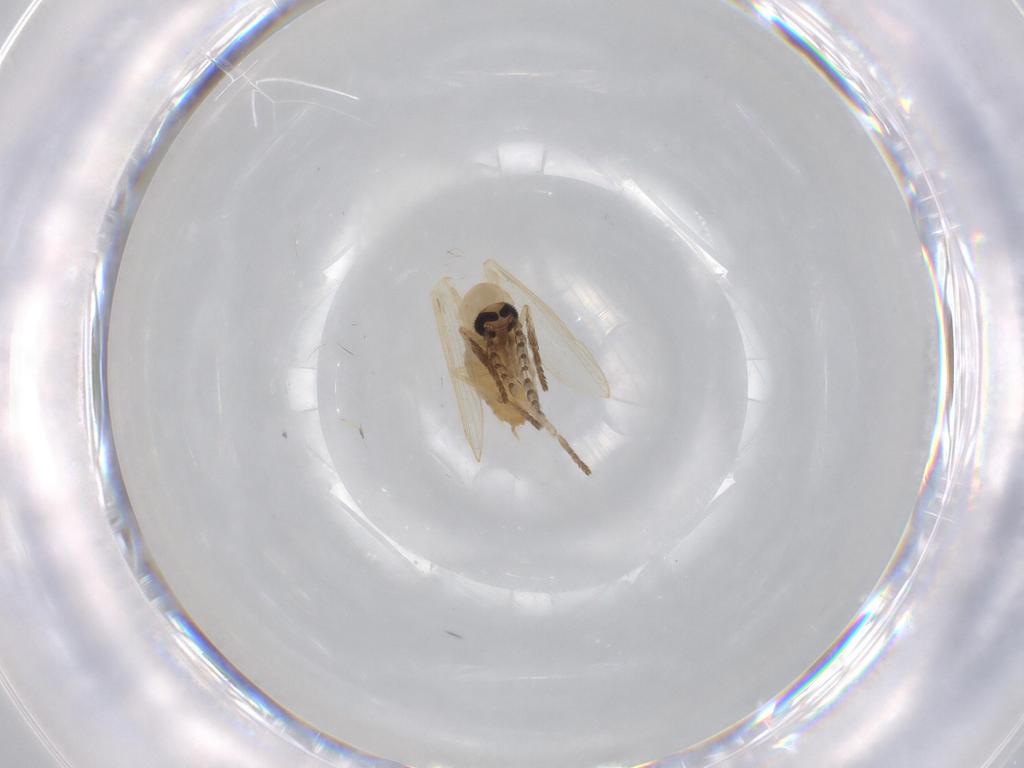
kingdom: Animalia
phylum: Arthropoda
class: Insecta
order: Diptera
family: Psychodidae
